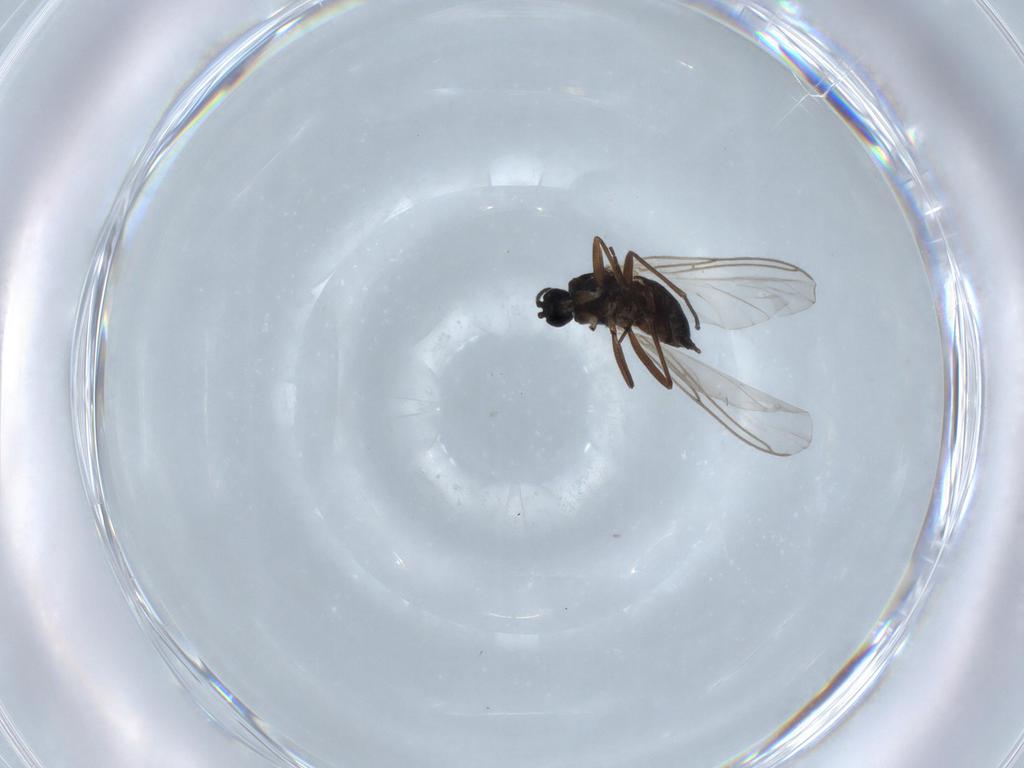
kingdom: Animalia
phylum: Arthropoda
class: Insecta
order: Diptera
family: Sciaridae
